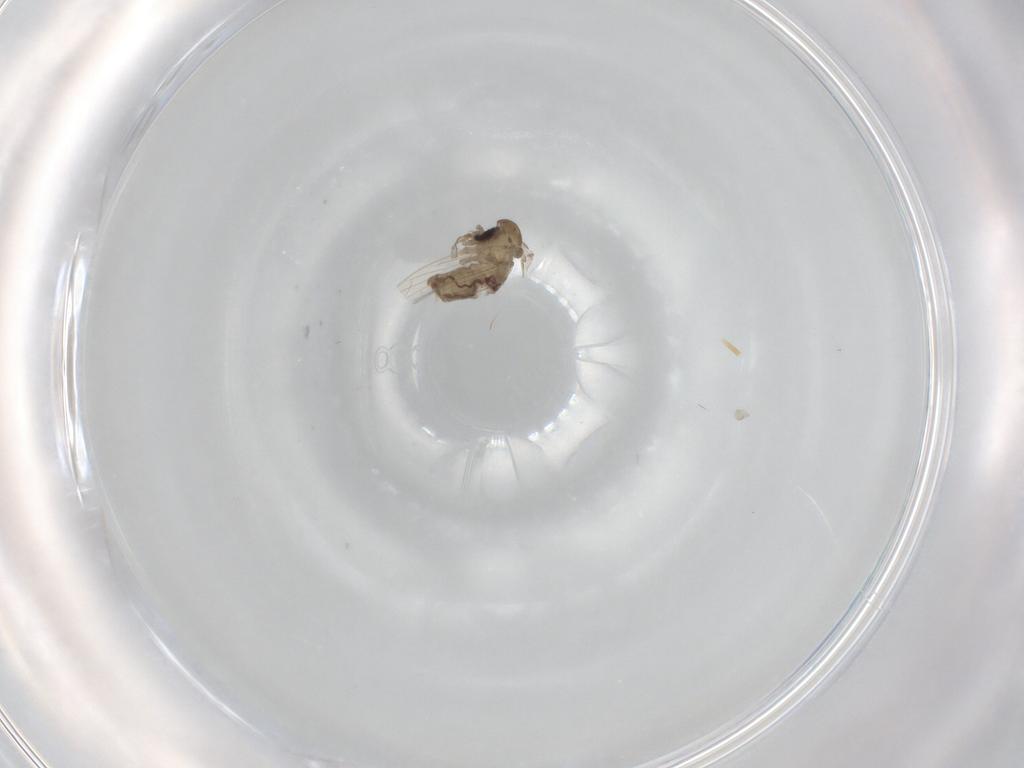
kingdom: Animalia
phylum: Arthropoda
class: Insecta
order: Diptera
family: Psychodidae
